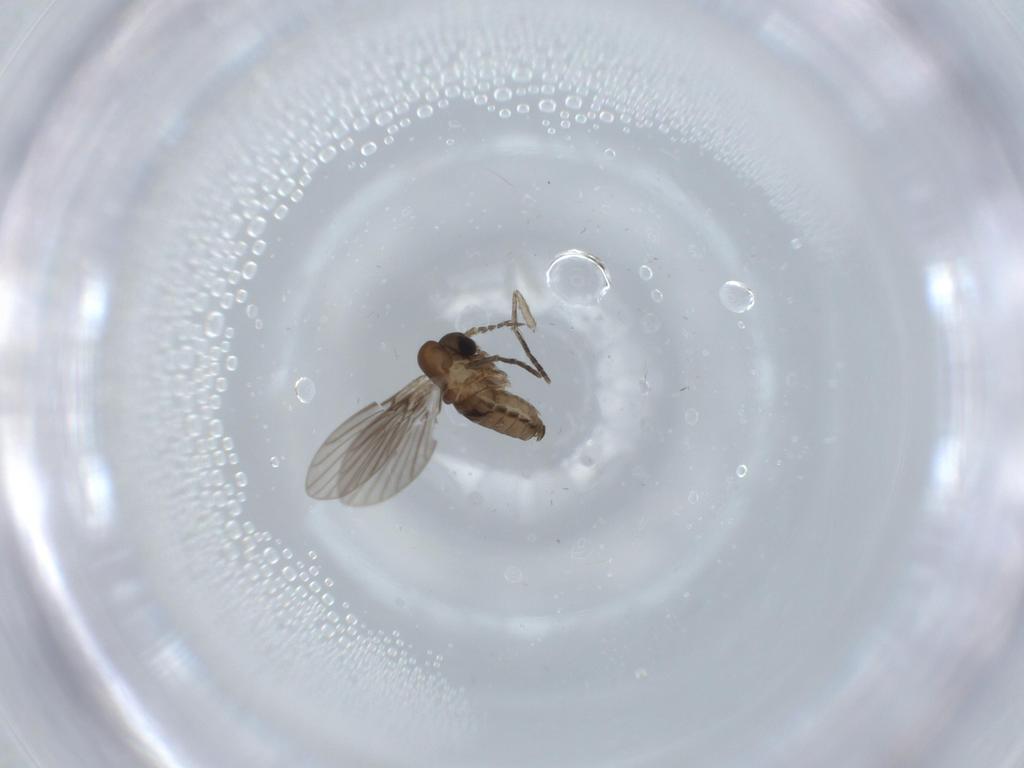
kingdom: Animalia
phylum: Arthropoda
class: Insecta
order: Diptera
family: Psychodidae
